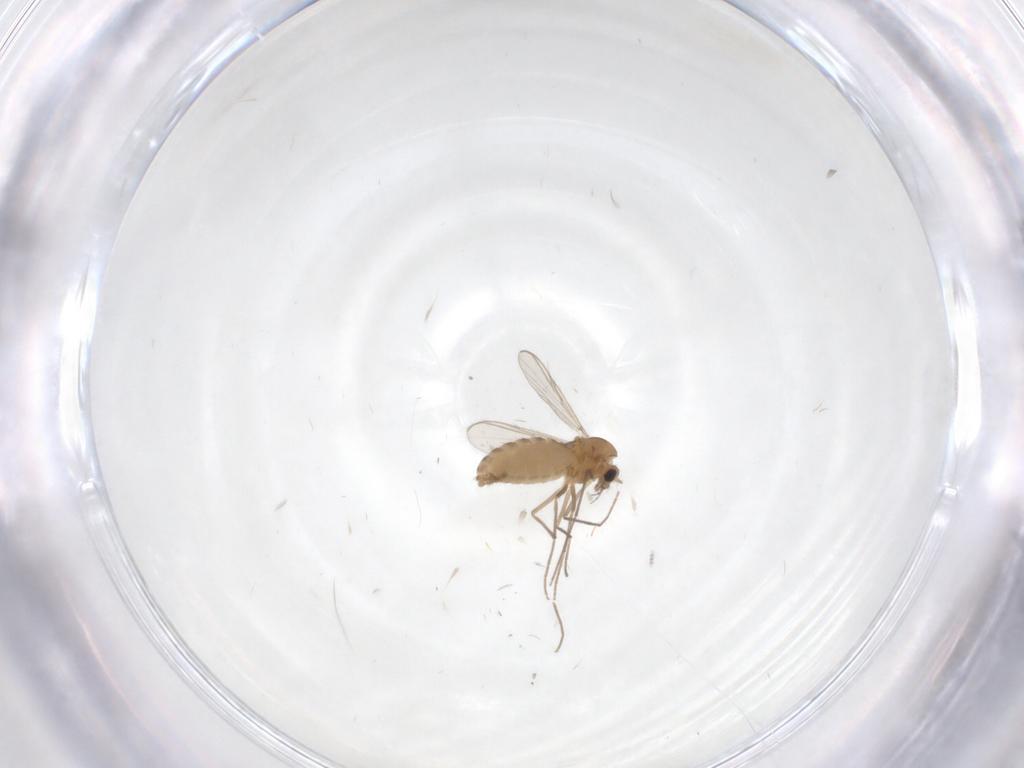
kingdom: Animalia
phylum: Arthropoda
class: Insecta
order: Diptera
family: Chironomidae
